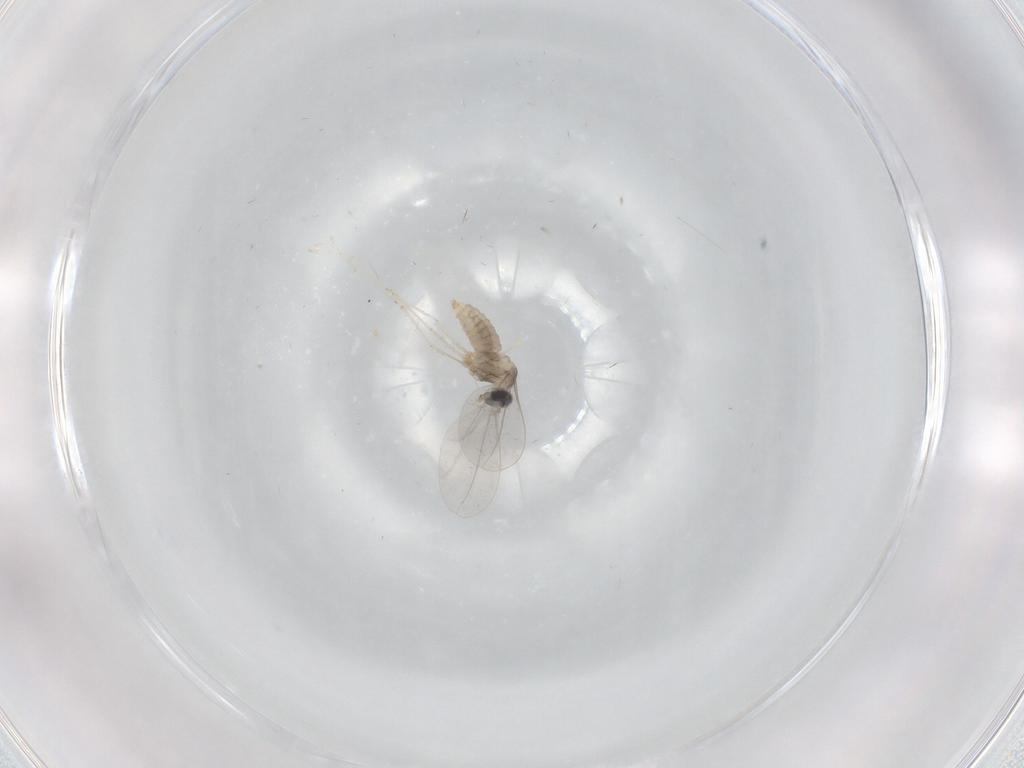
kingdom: Animalia
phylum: Arthropoda
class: Insecta
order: Diptera
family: Cecidomyiidae
